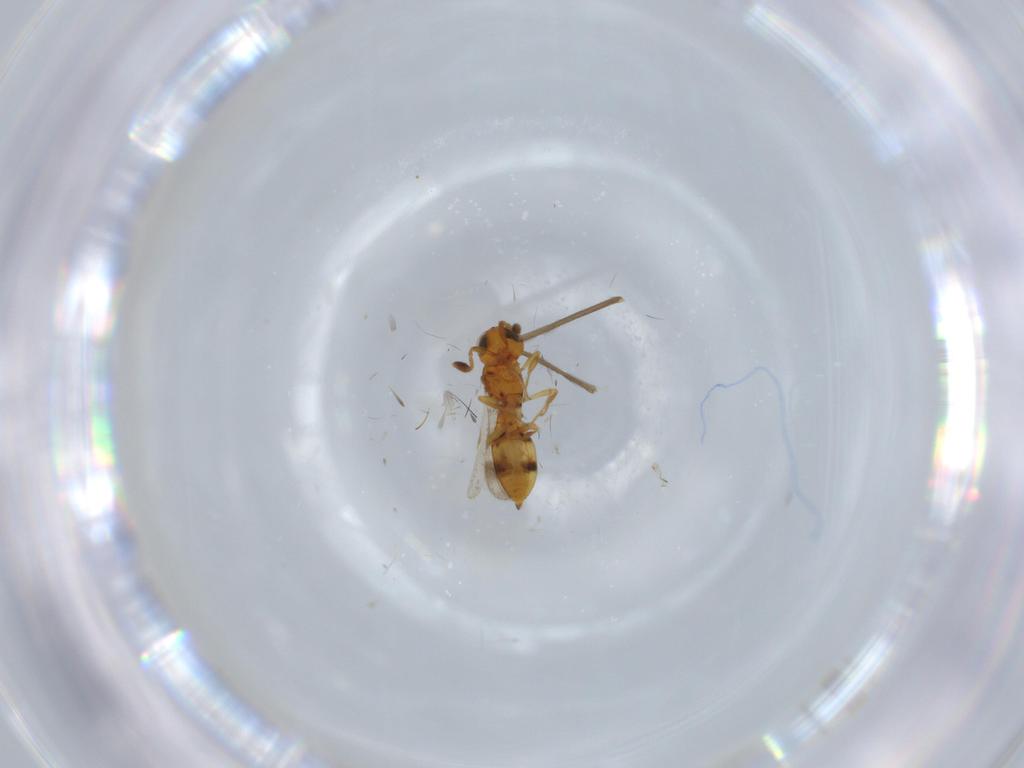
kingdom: Animalia
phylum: Arthropoda
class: Insecta
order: Hymenoptera
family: Scelionidae
